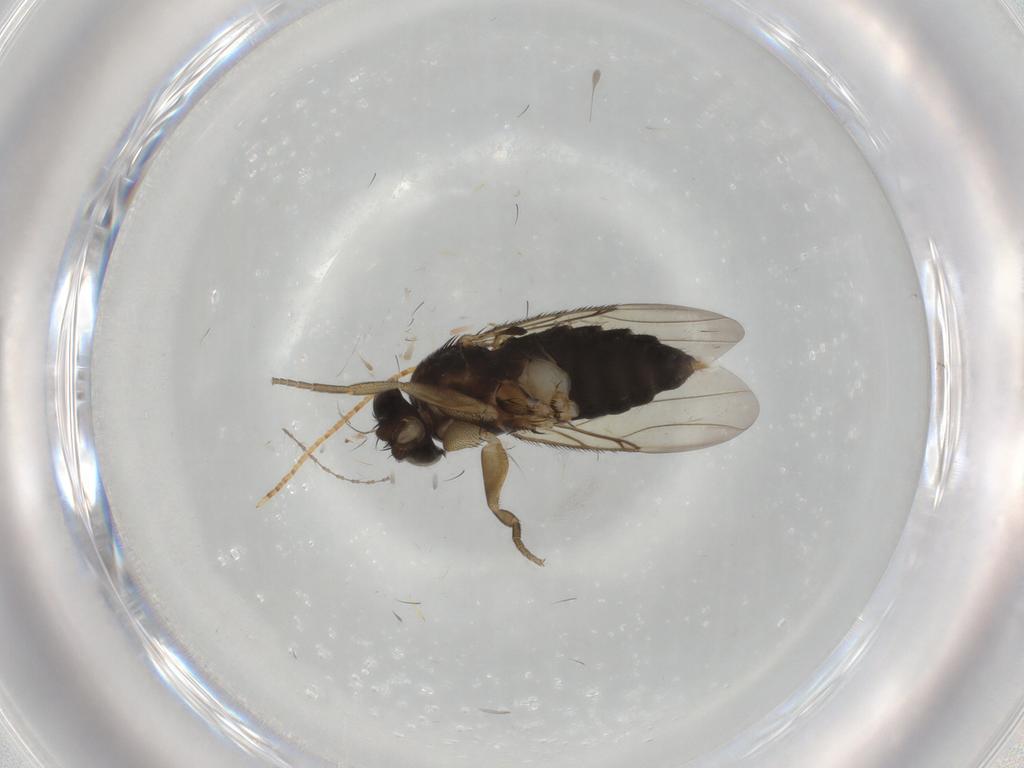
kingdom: Animalia
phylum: Arthropoda
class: Insecta
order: Diptera
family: Phoridae
